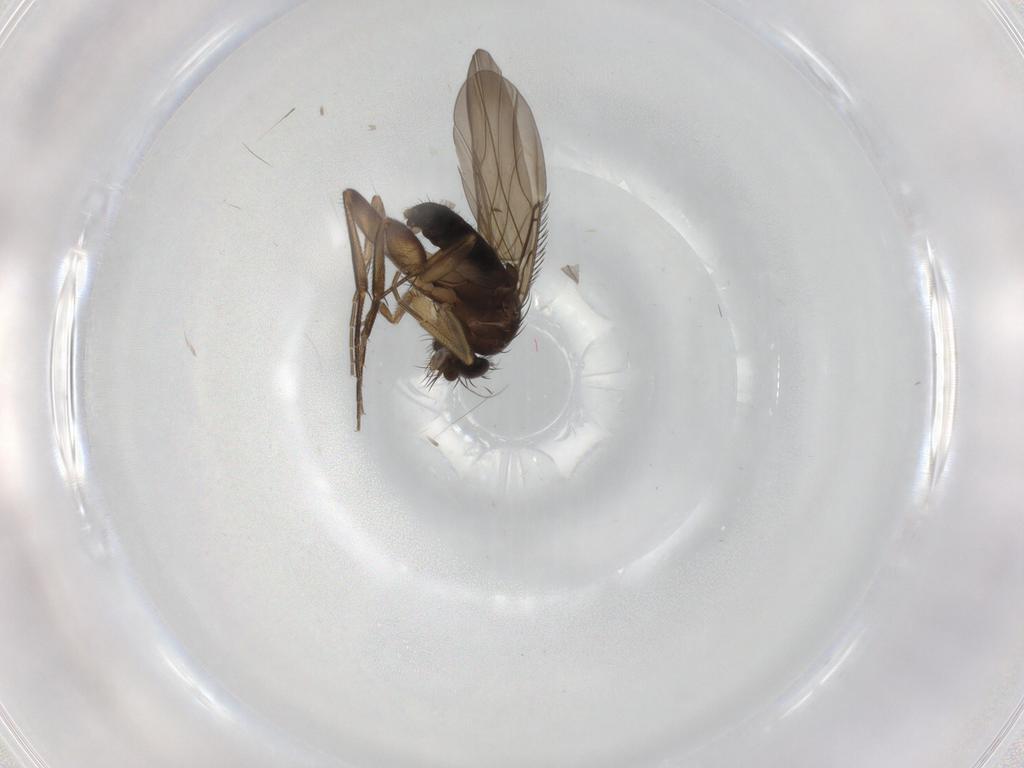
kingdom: Animalia
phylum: Arthropoda
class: Insecta
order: Diptera
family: Phoridae
